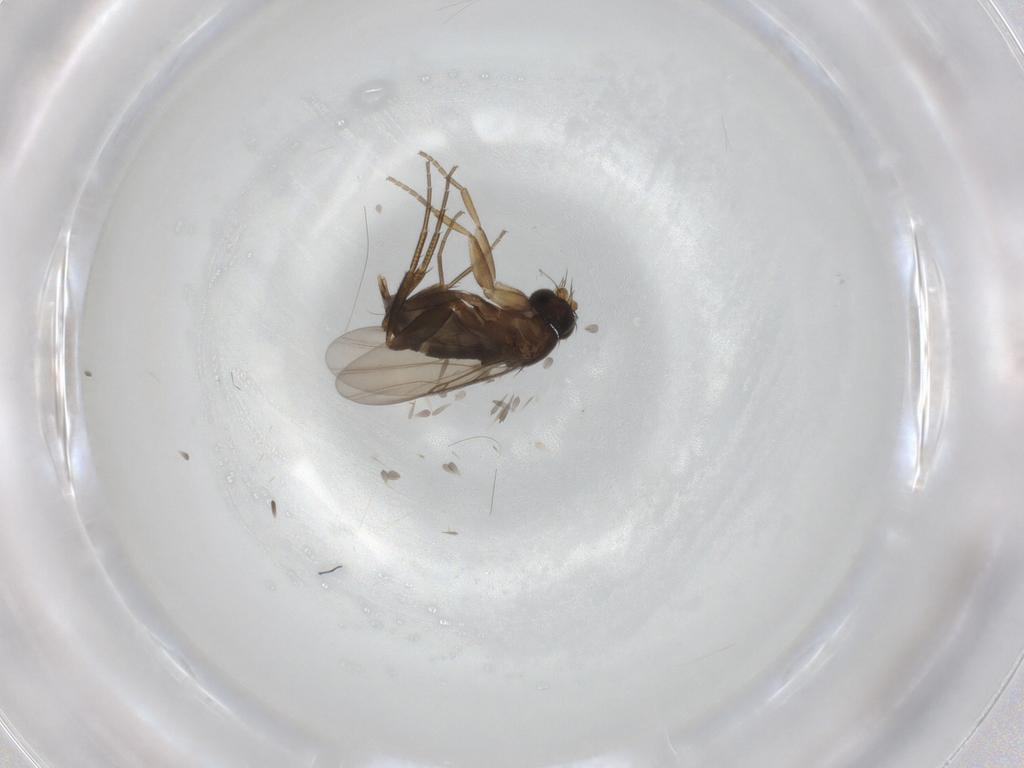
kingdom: Animalia
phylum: Arthropoda
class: Insecta
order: Diptera
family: Phoridae
